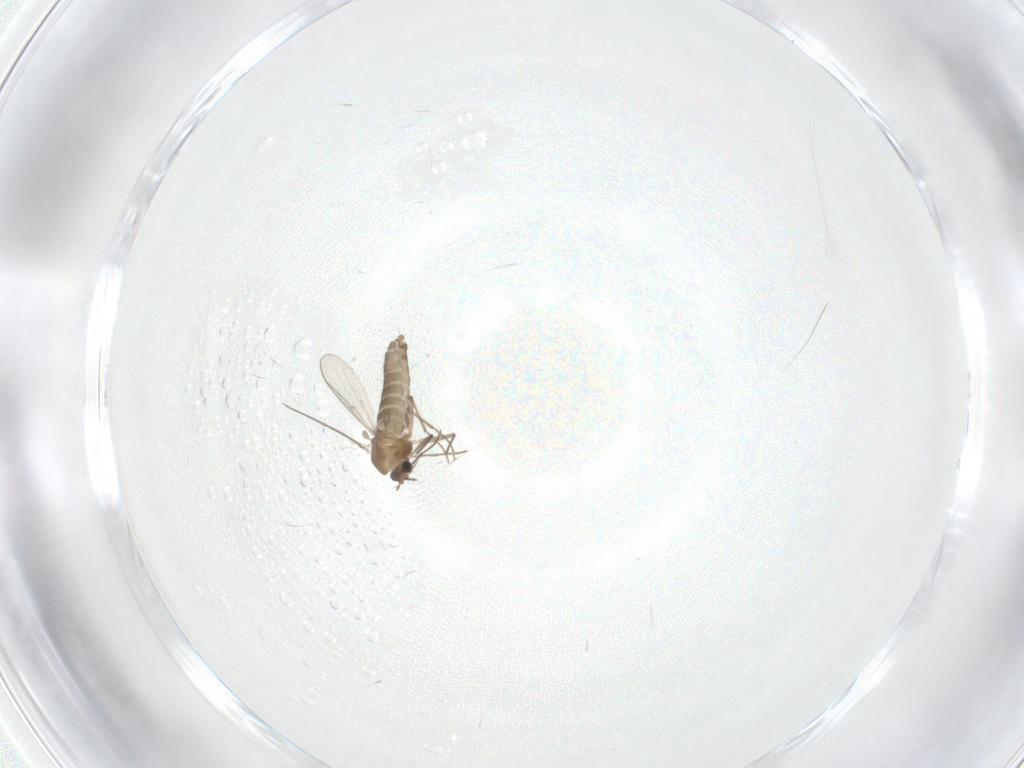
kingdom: Animalia
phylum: Arthropoda
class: Insecta
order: Diptera
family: Chironomidae
